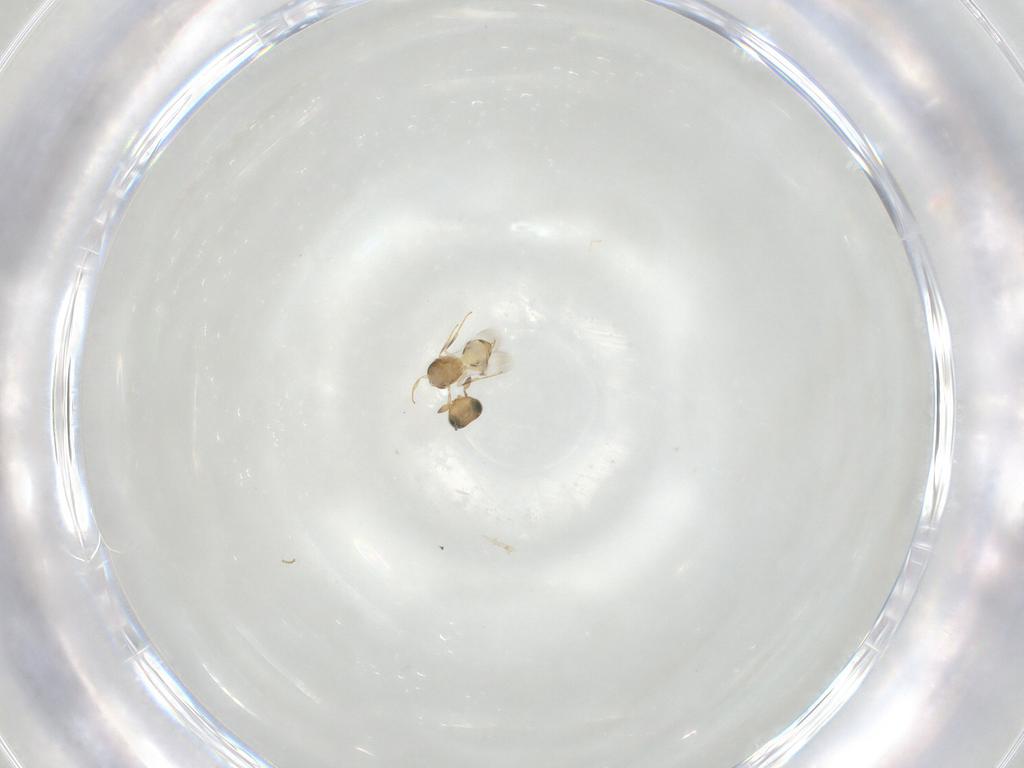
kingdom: Animalia
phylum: Arthropoda
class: Insecta
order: Hymenoptera
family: Scelionidae
